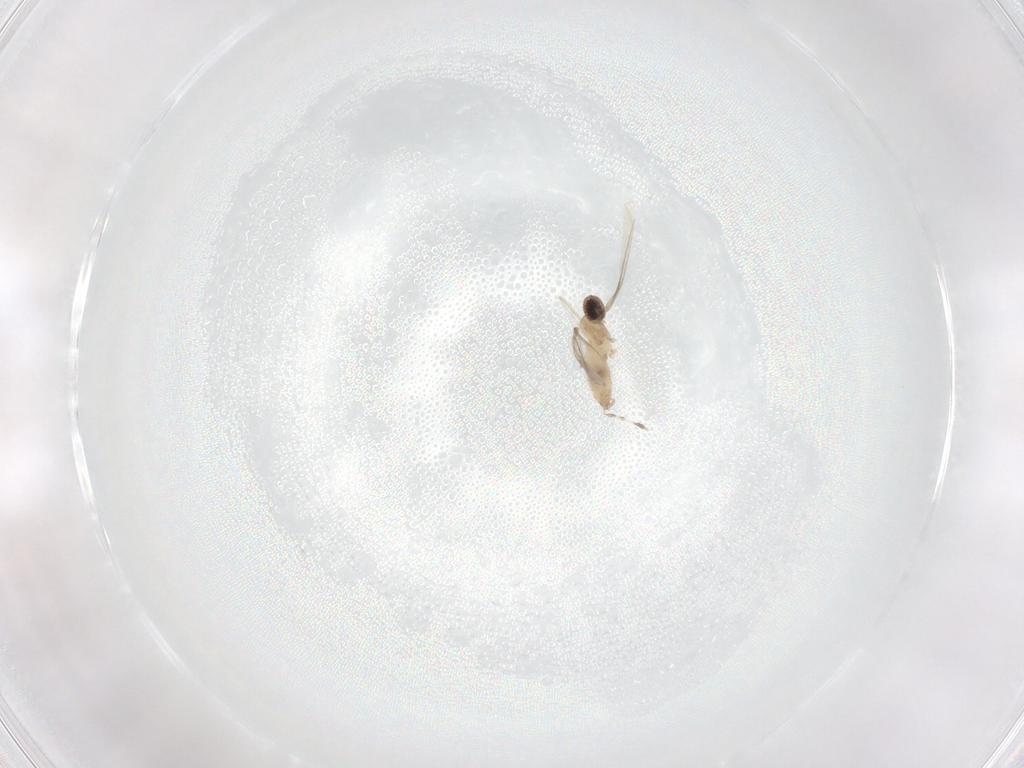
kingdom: Animalia
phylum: Arthropoda
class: Insecta
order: Diptera
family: Cecidomyiidae
